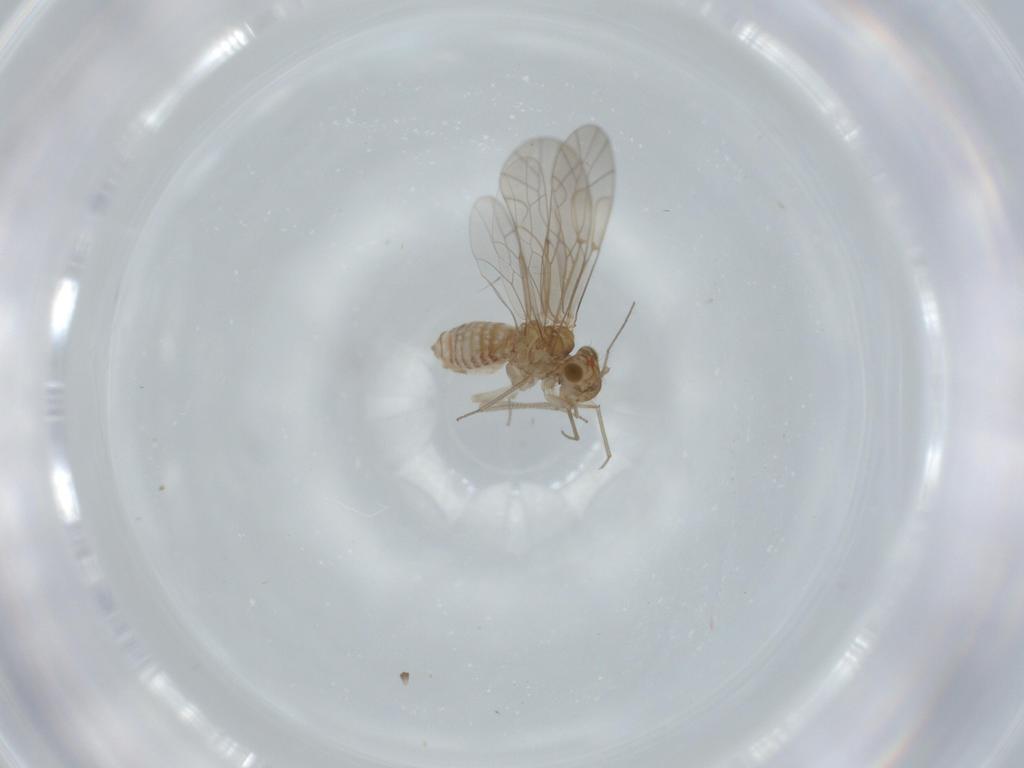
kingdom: Animalia
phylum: Arthropoda
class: Insecta
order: Psocodea
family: Lachesillidae
